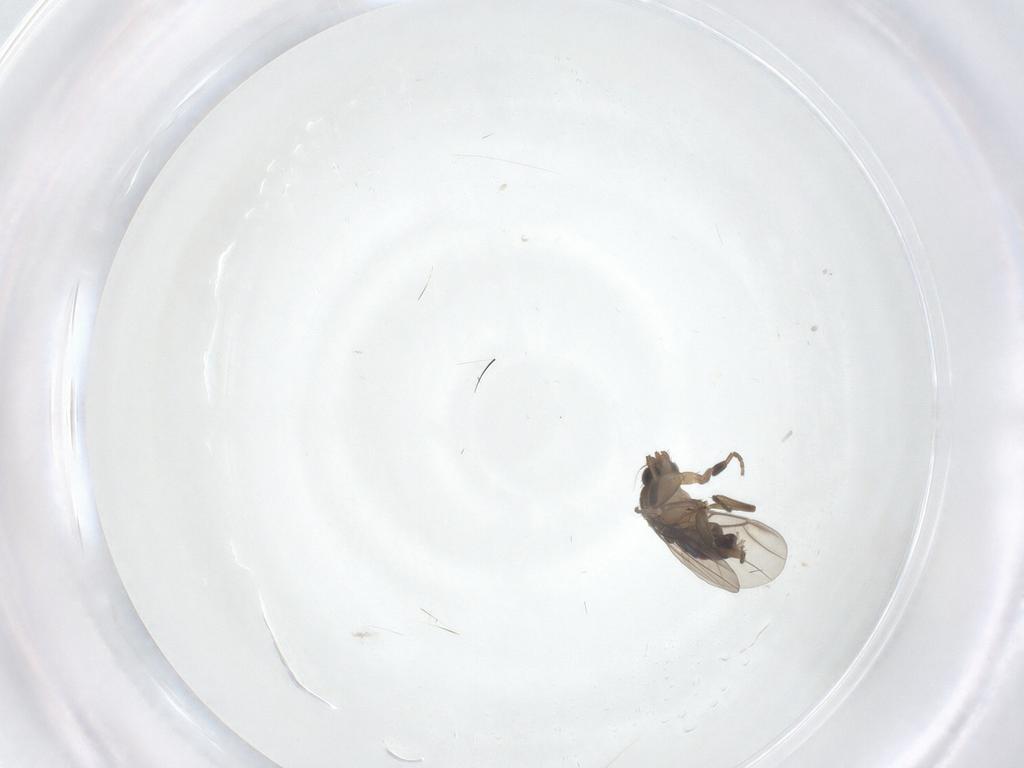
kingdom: Animalia
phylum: Arthropoda
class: Insecta
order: Diptera
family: Phoridae
